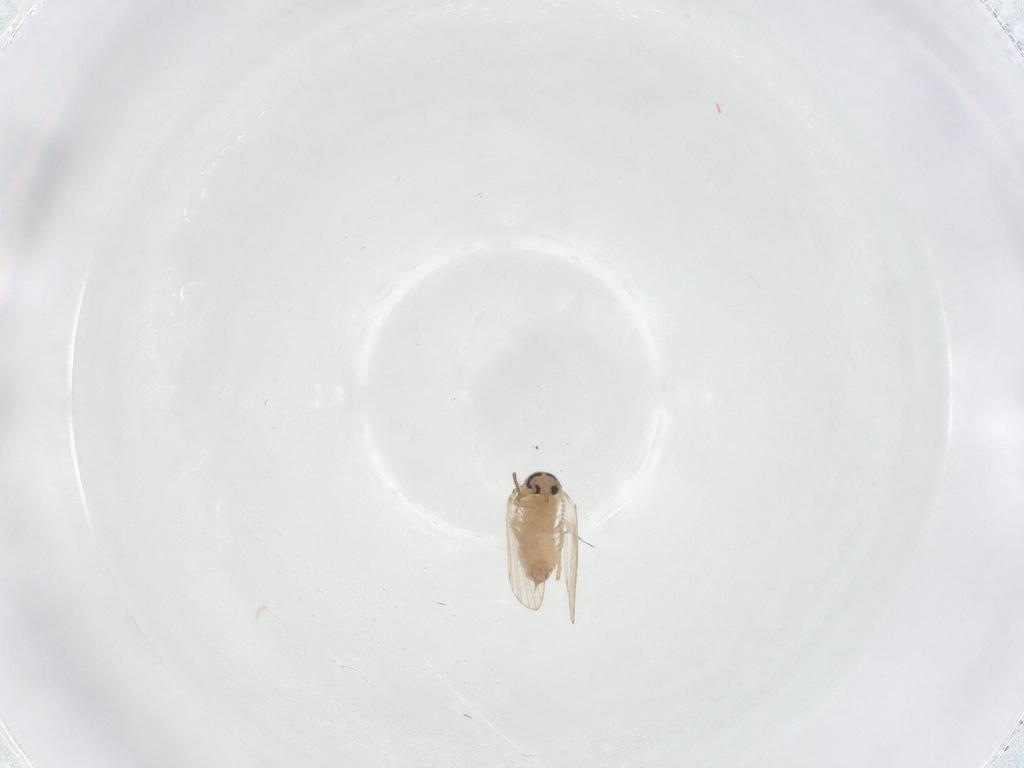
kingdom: Animalia
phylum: Arthropoda
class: Insecta
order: Diptera
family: Psychodidae
